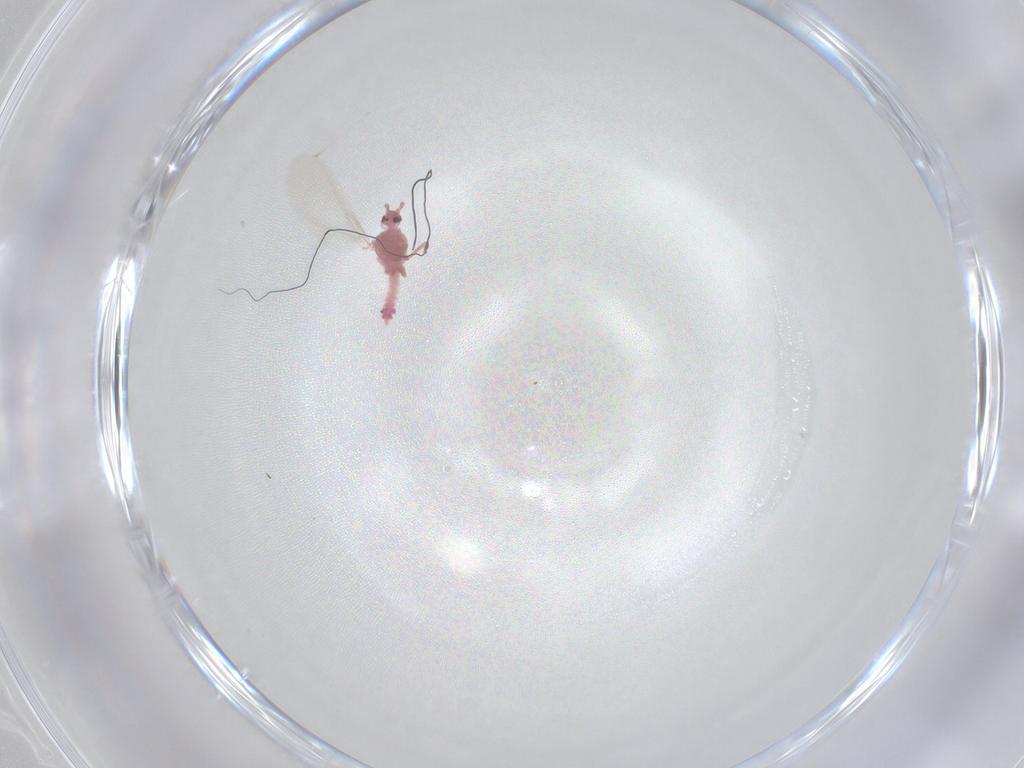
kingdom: Animalia
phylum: Arthropoda
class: Insecta
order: Diptera
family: Cecidomyiidae
